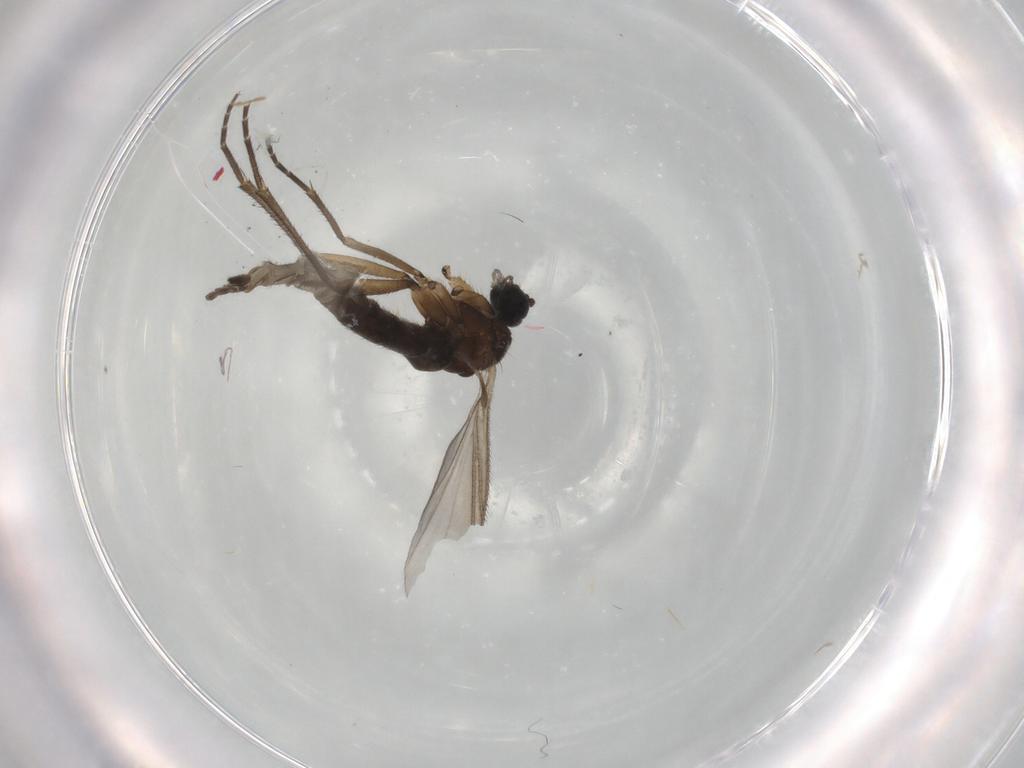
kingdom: Animalia
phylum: Arthropoda
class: Insecta
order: Diptera
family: Sciaridae
